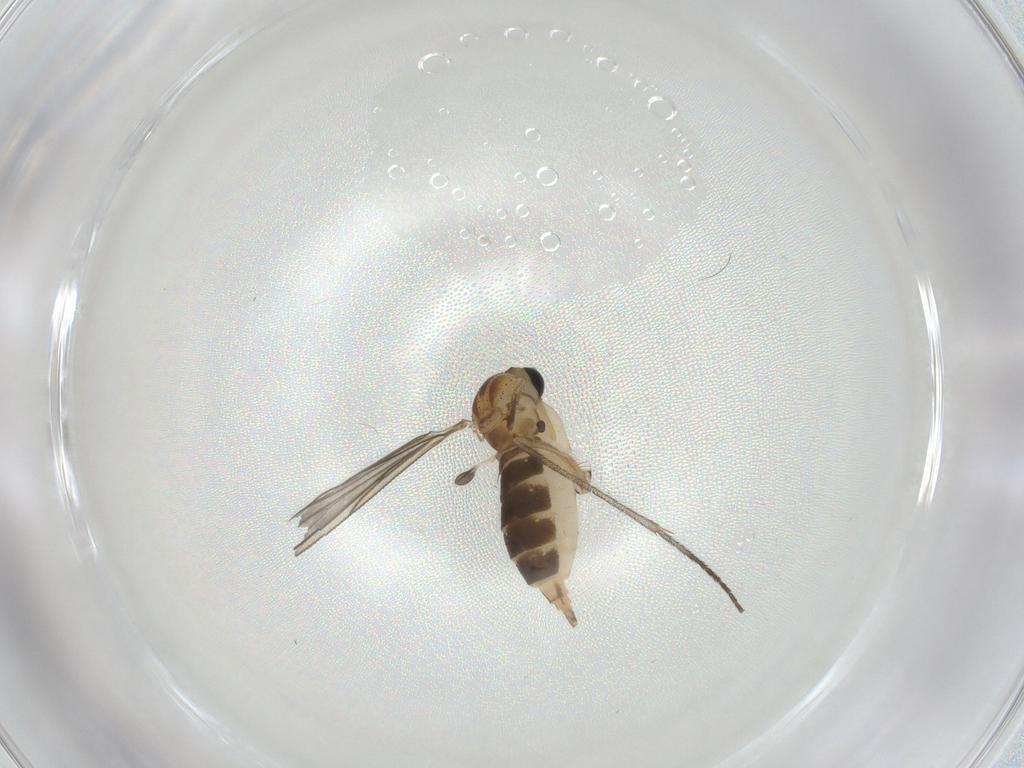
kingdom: Animalia
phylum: Arthropoda
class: Insecta
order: Diptera
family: Sciaridae
